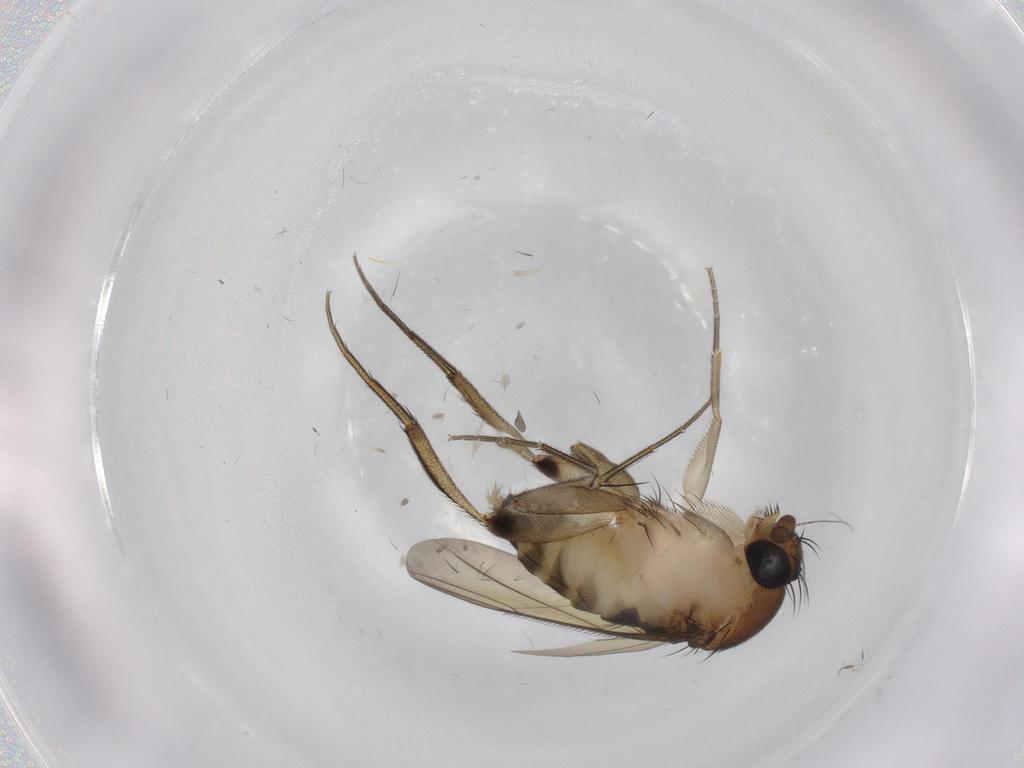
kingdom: Animalia
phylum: Arthropoda
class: Insecta
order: Diptera
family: Sciaridae
